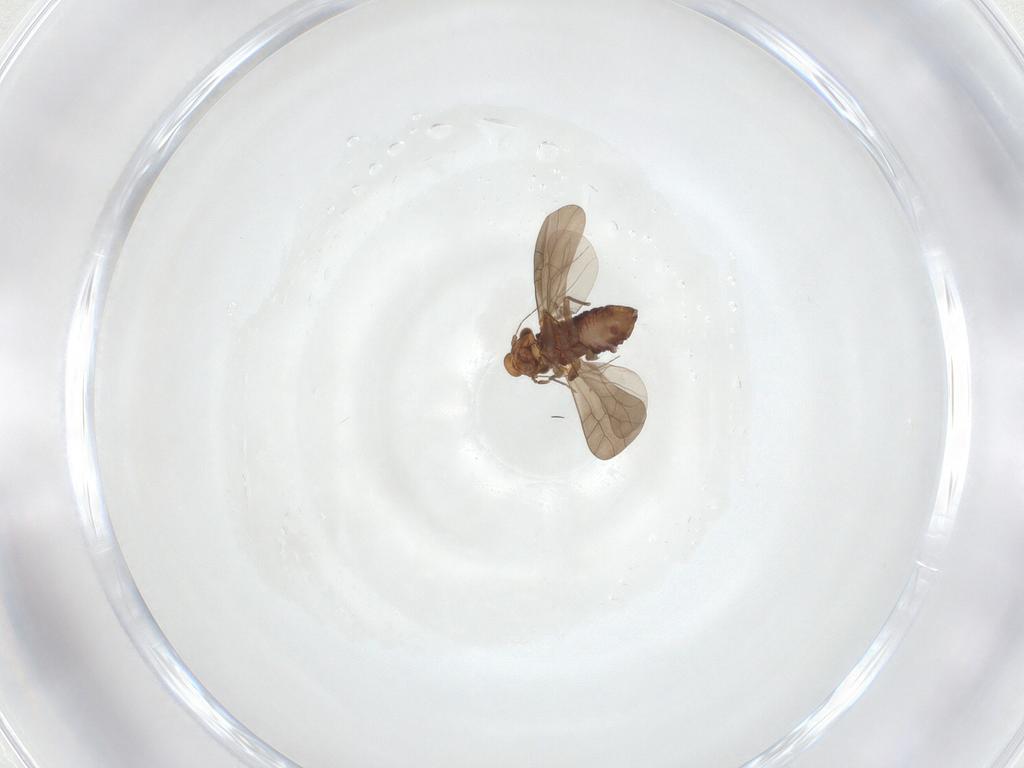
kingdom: Animalia
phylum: Arthropoda
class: Insecta
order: Psocodea
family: Lepidopsocidae
